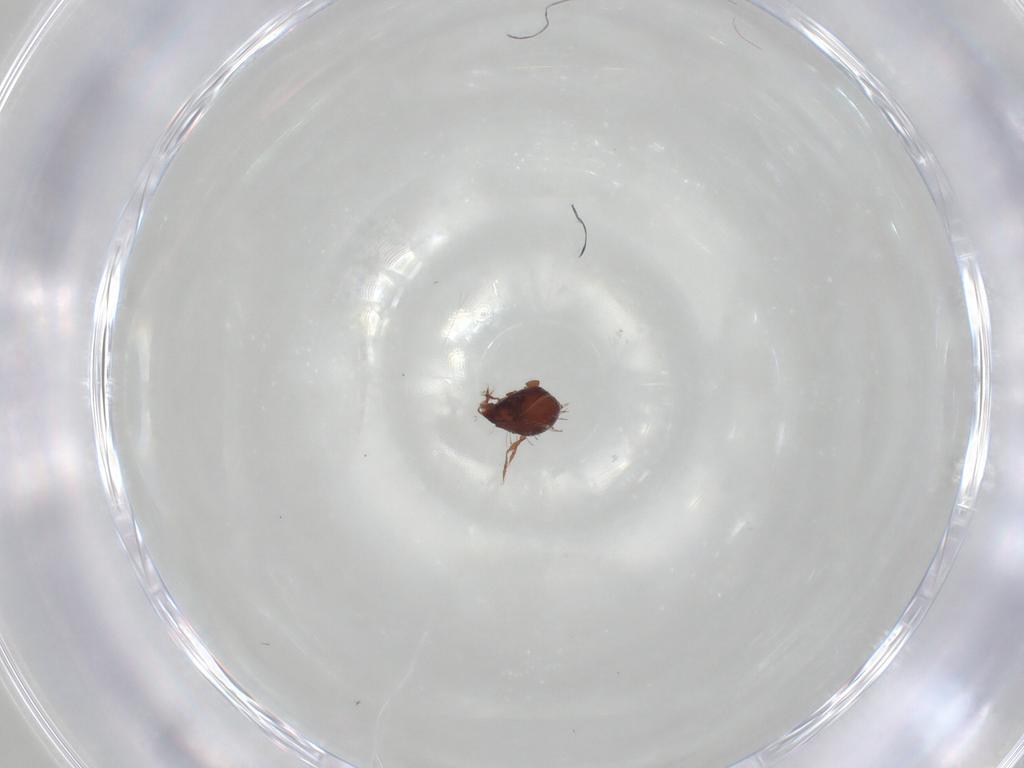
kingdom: Animalia
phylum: Arthropoda
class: Arachnida
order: Sarcoptiformes
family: Caloppiidae
